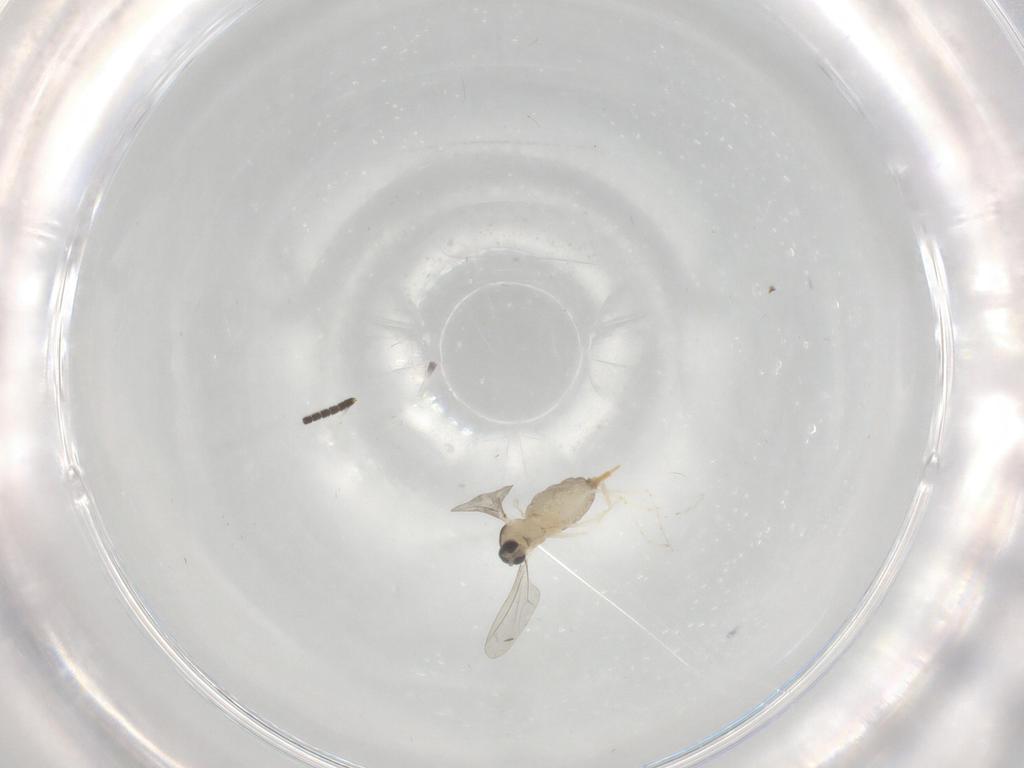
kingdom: Animalia
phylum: Arthropoda
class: Insecta
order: Diptera
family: Cecidomyiidae
